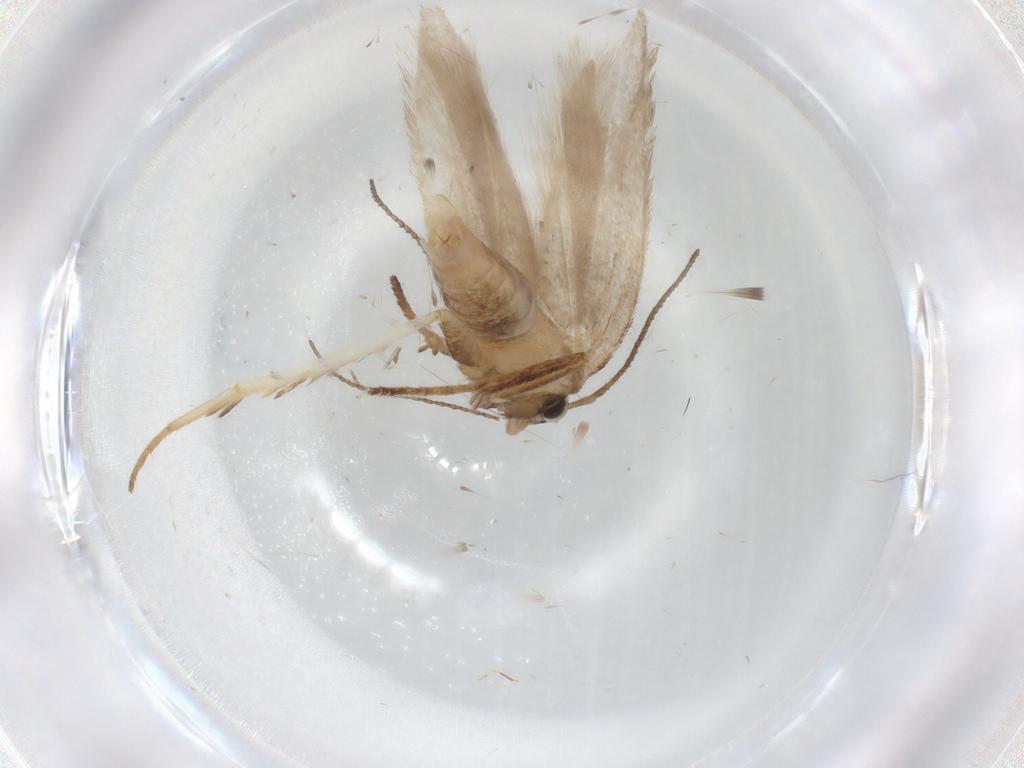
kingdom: Animalia
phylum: Arthropoda
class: Insecta
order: Lepidoptera
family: Gelechiidae
